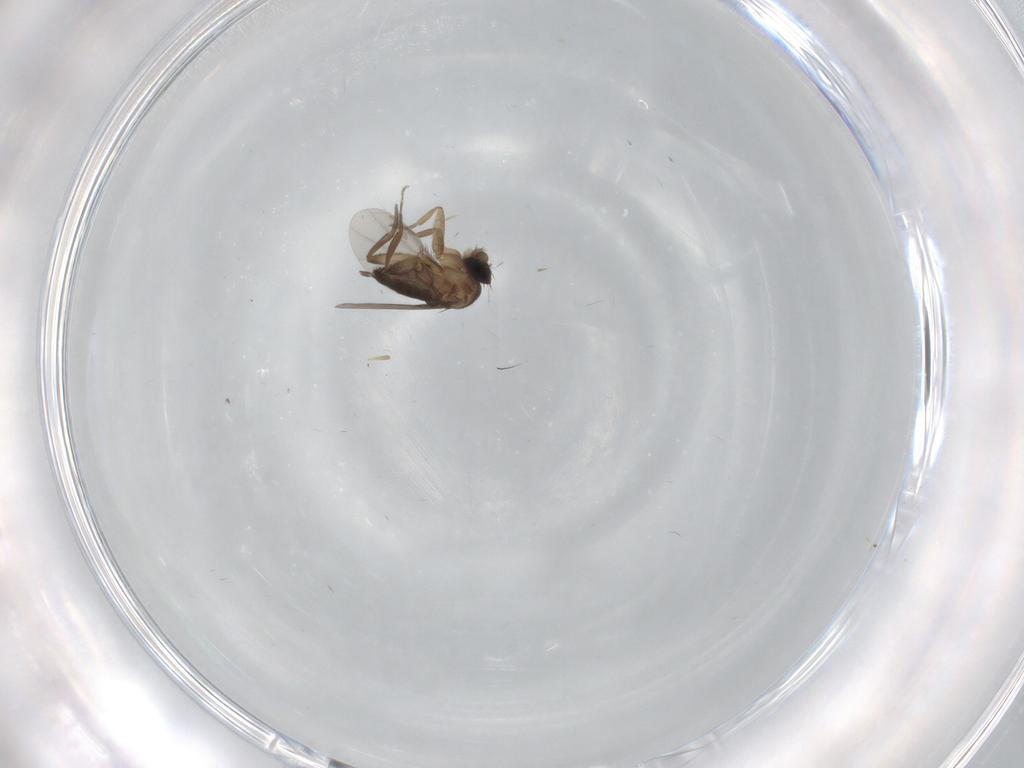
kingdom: Animalia
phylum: Arthropoda
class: Insecta
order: Diptera
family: Phoridae
